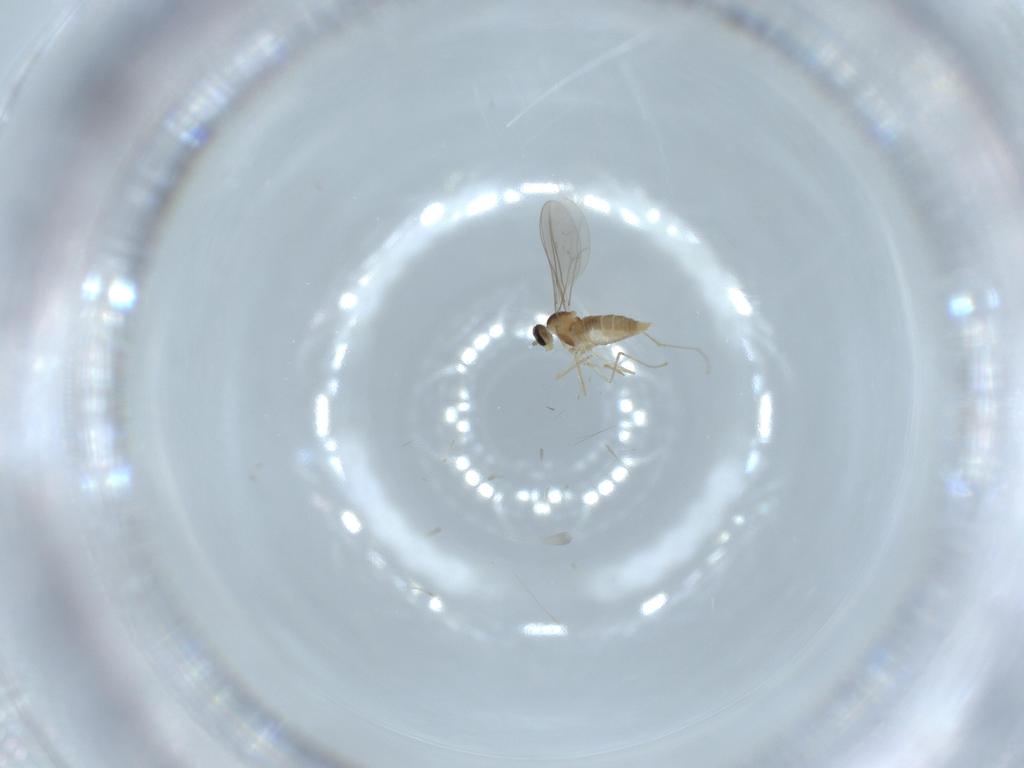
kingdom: Animalia
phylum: Arthropoda
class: Insecta
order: Diptera
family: Cecidomyiidae
